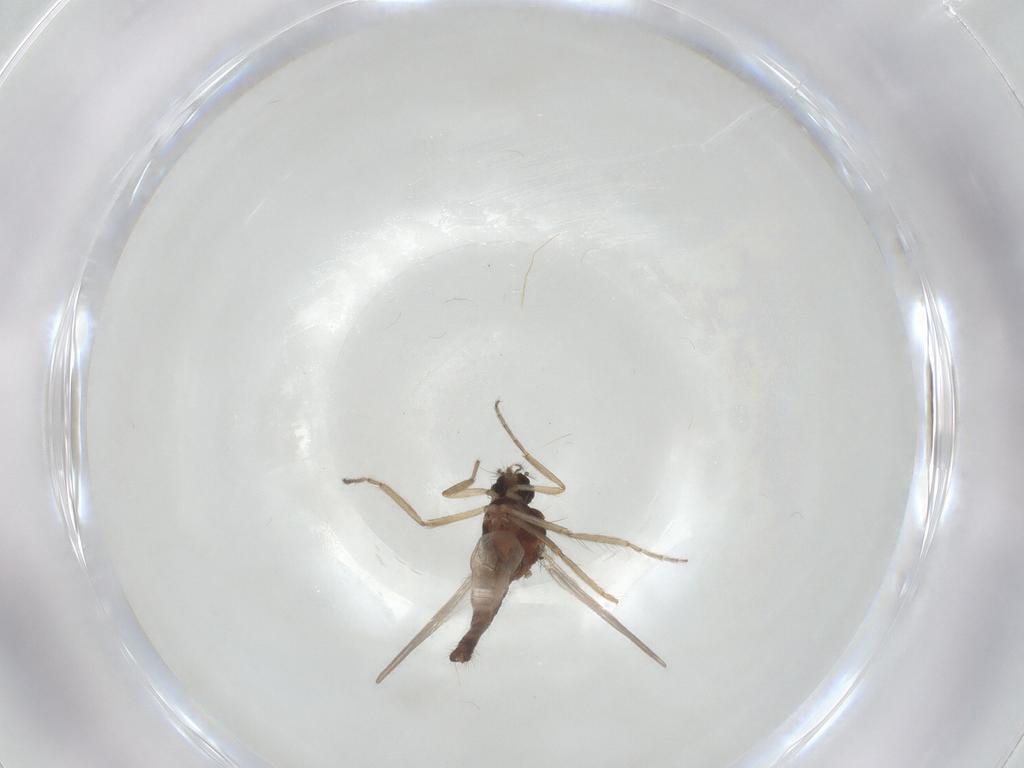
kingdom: Animalia
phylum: Arthropoda
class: Insecta
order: Diptera
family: Ceratopogonidae
